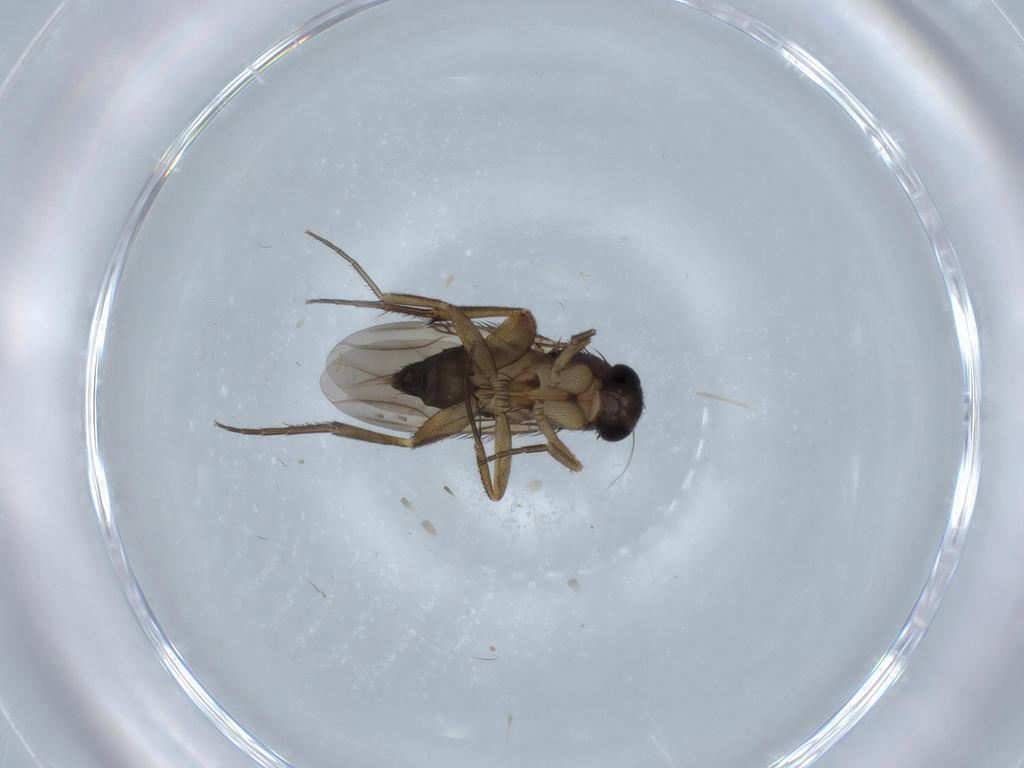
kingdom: Animalia
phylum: Arthropoda
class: Insecta
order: Diptera
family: Phoridae
